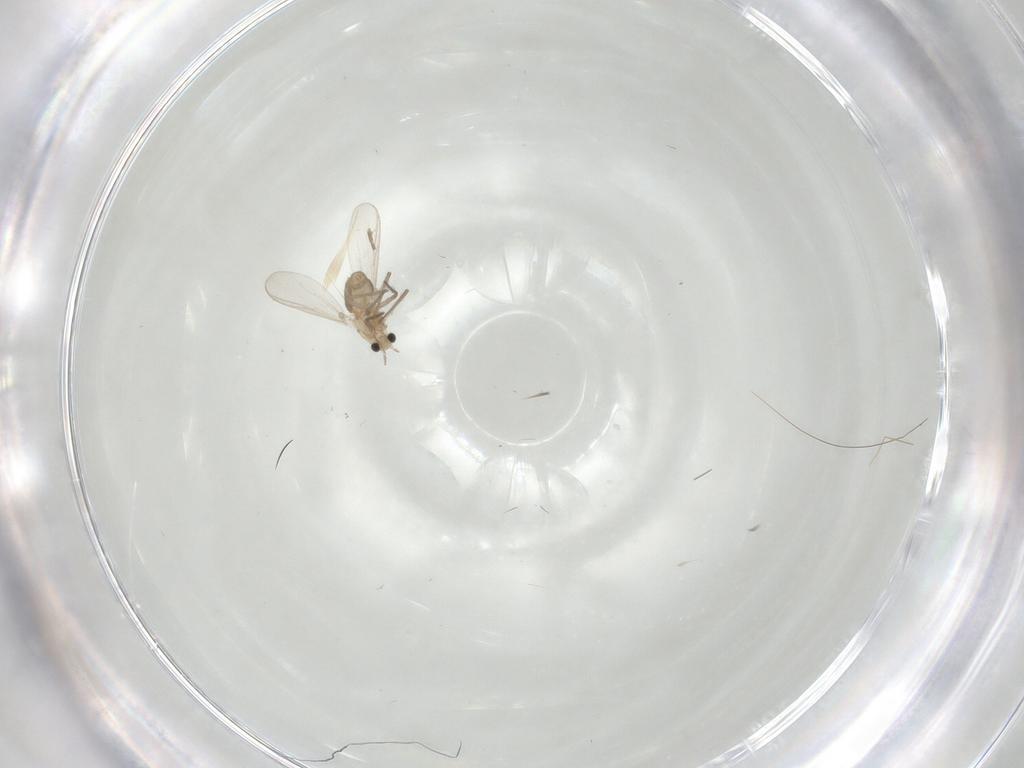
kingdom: Animalia
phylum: Arthropoda
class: Insecta
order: Diptera
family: Chironomidae
